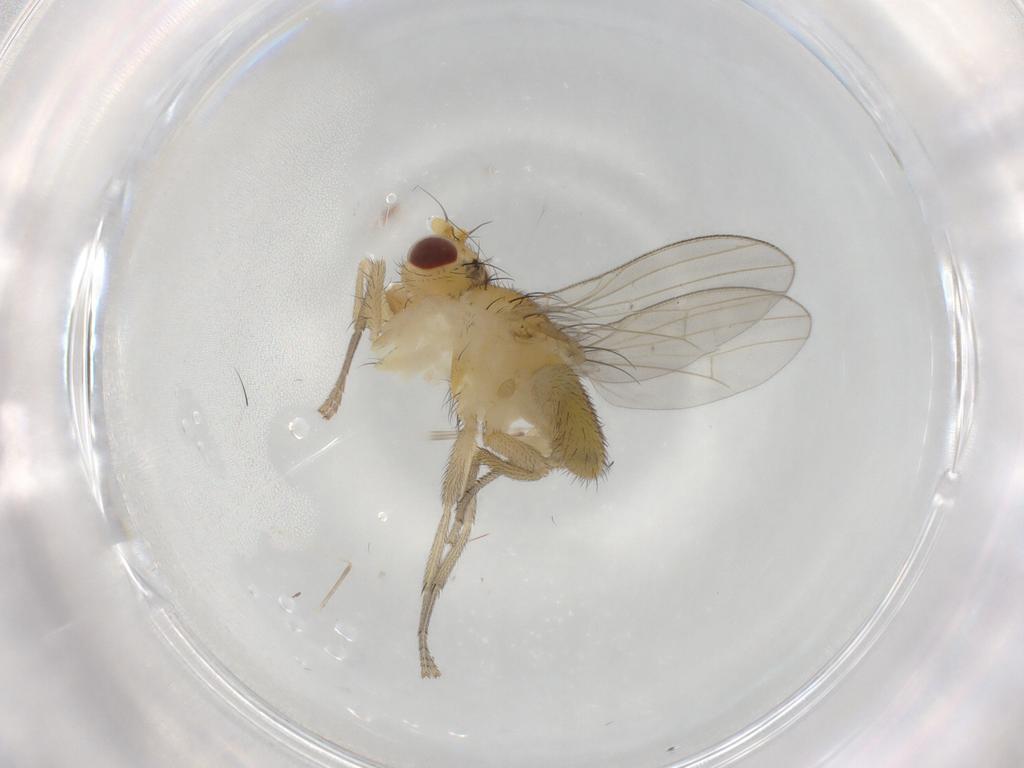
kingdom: Animalia
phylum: Arthropoda
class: Insecta
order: Diptera
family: Cecidomyiidae
